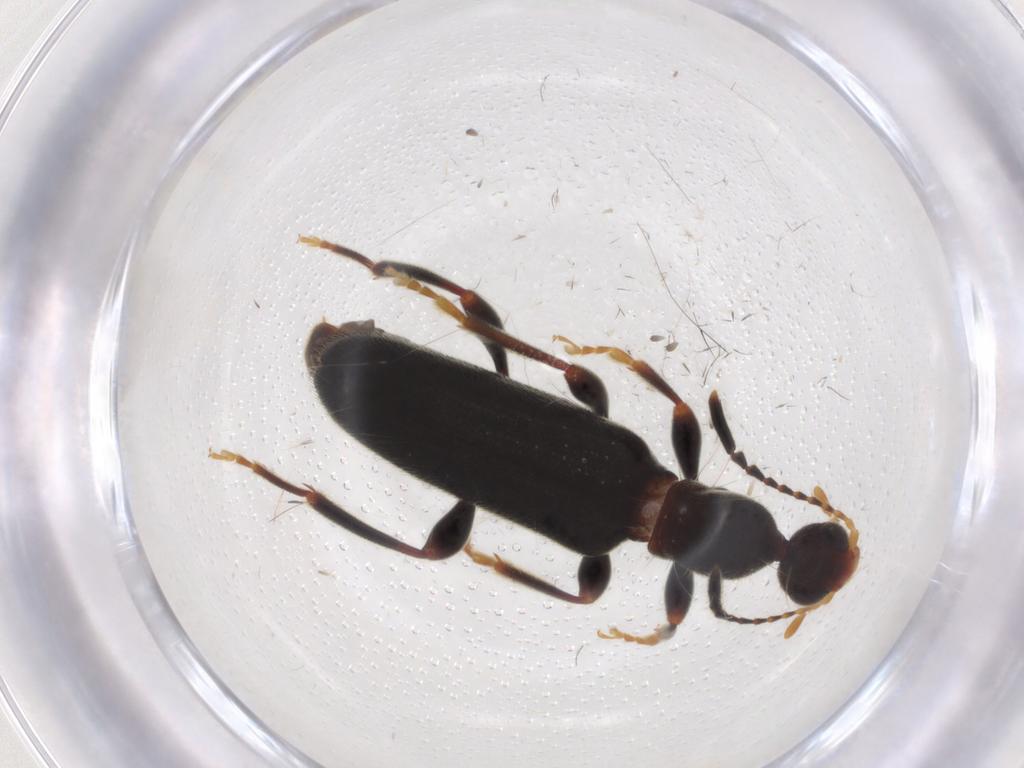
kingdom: Animalia
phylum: Arthropoda
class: Insecta
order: Coleoptera
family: Anthicidae
